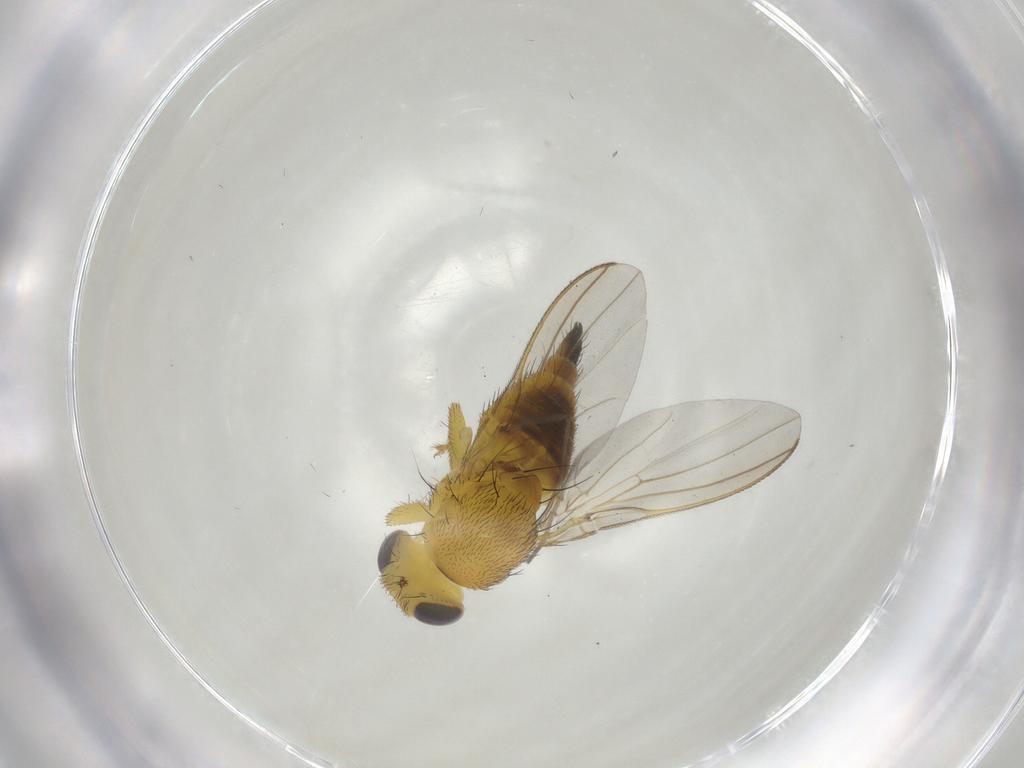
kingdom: Animalia
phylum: Arthropoda
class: Insecta
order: Diptera
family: Fergusoninidae
